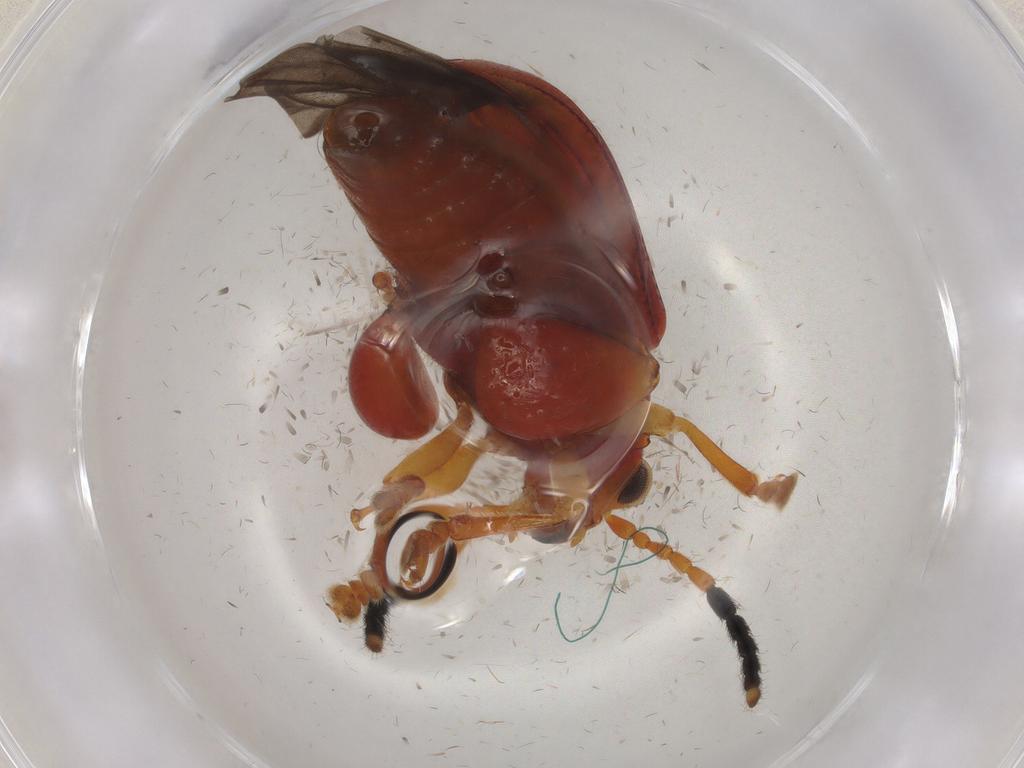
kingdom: Animalia
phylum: Arthropoda
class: Insecta
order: Coleoptera
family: Chrysomelidae
